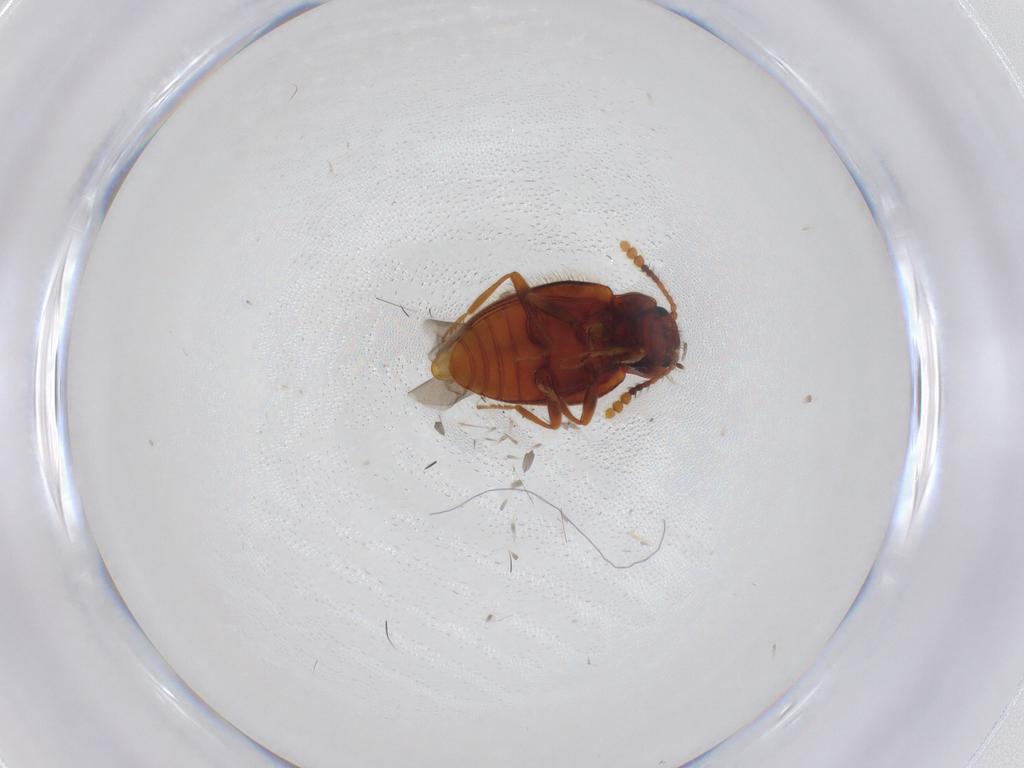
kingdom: Animalia
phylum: Arthropoda
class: Insecta
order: Coleoptera
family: Erotylidae
